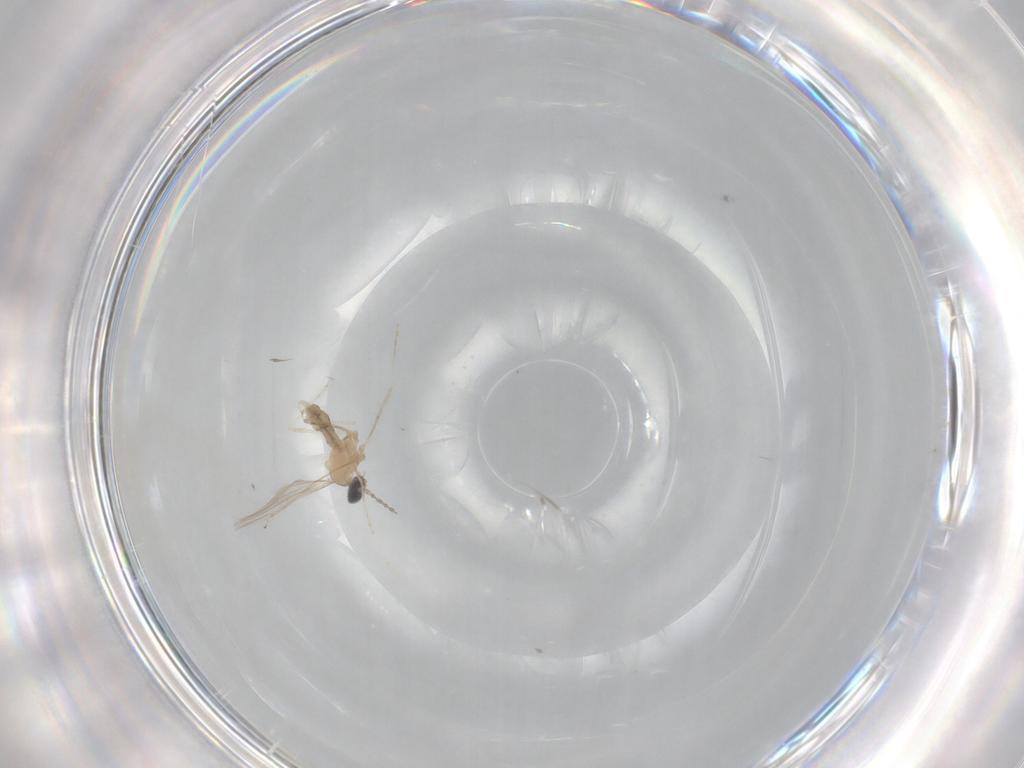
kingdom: Animalia
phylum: Arthropoda
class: Insecta
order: Diptera
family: Cecidomyiidae
